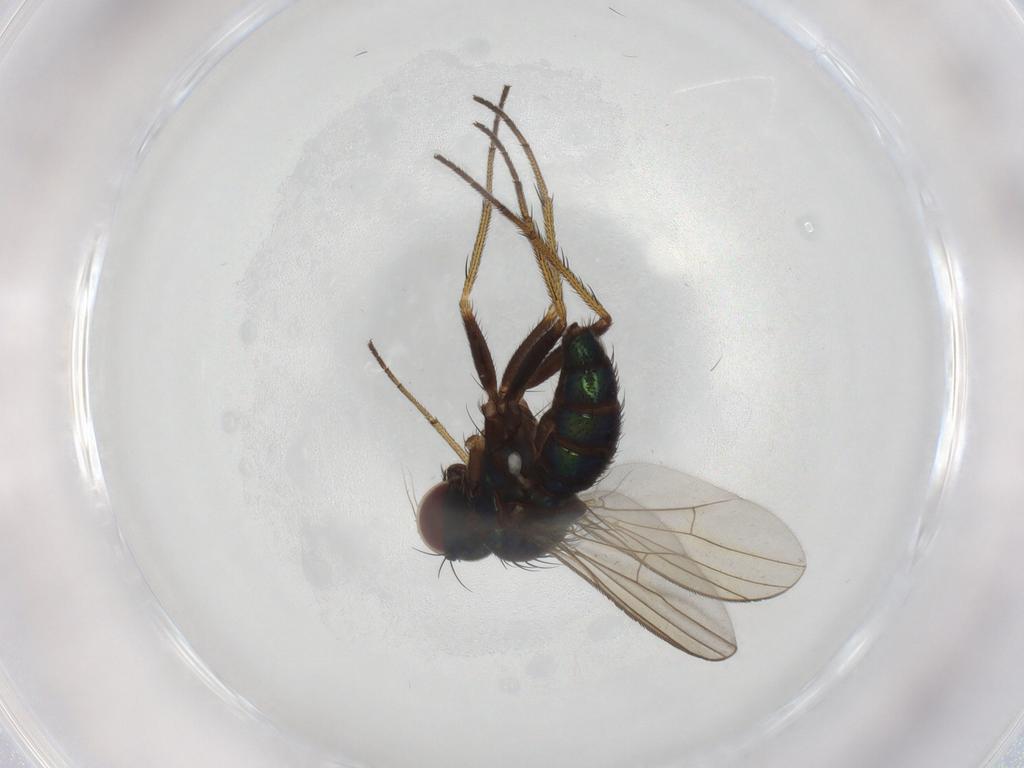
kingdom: Animalia
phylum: Arthropoda
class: Insecta
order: Diptera
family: Dolichopodidae
